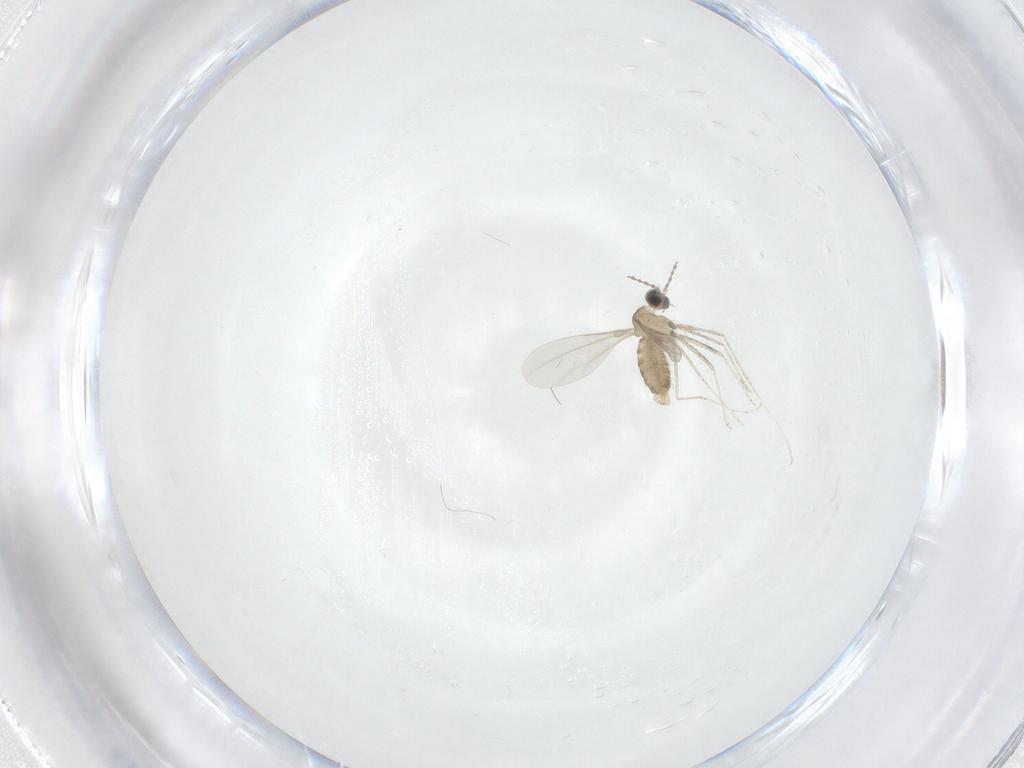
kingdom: Animalia
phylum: Arthropoda
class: Insecta
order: Diptera
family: Cecidomyiidae
